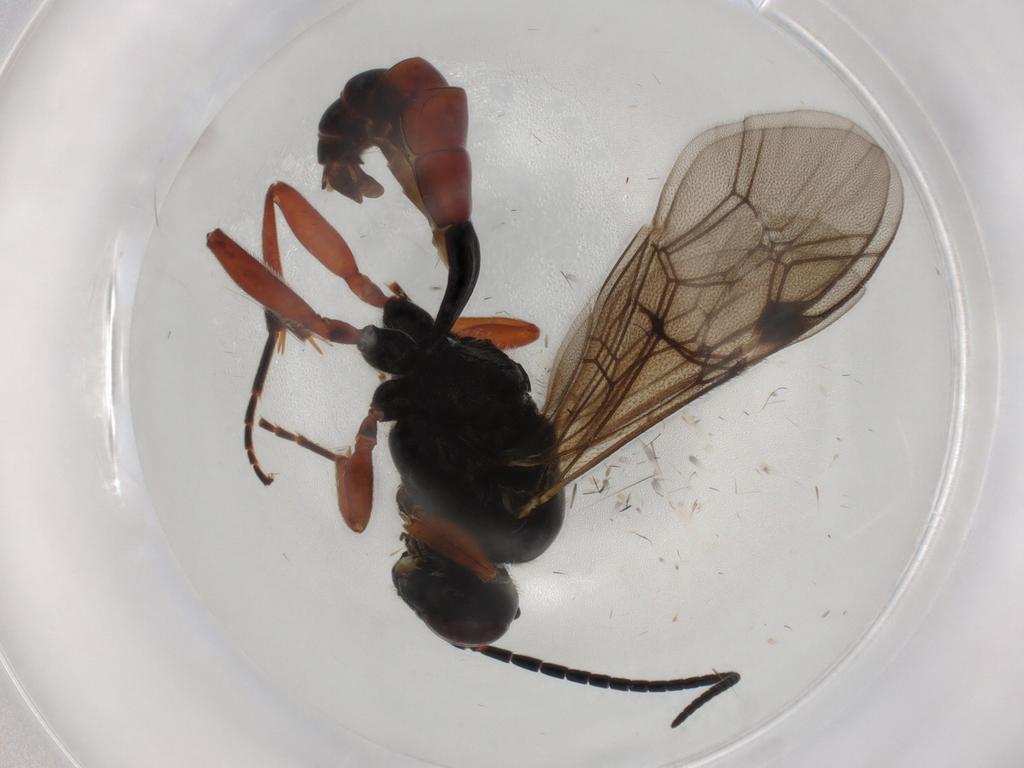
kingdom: Animalia
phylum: Arthropoda
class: Insecta
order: Hymenoptera
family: Ichneumonidae
